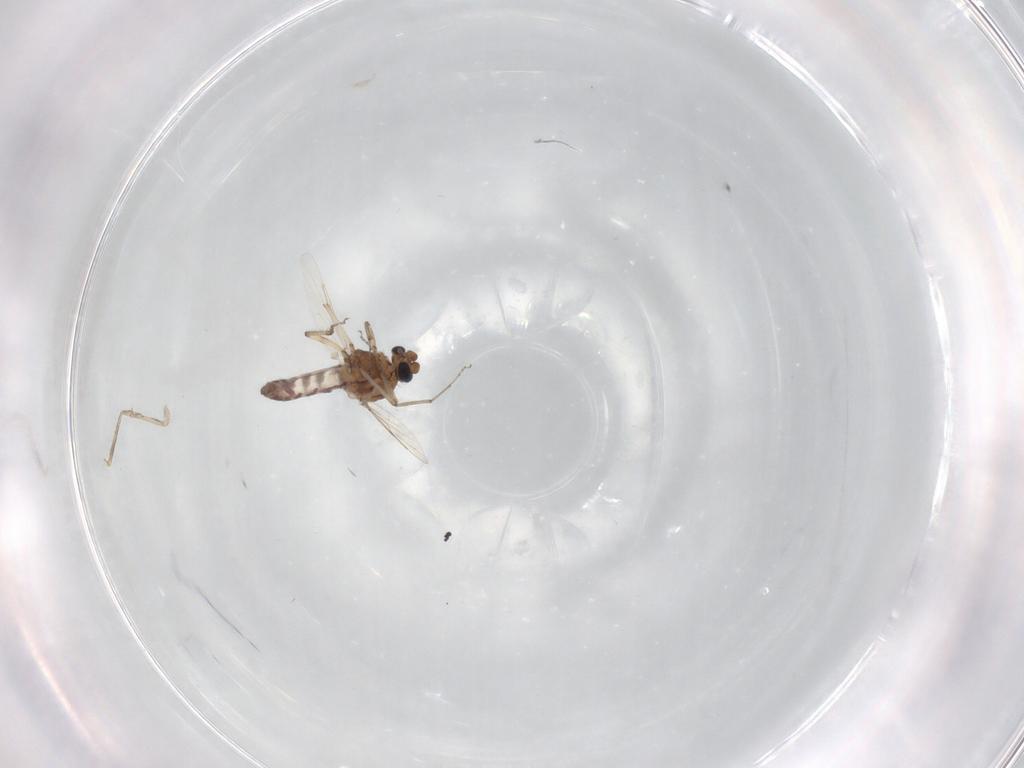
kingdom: Animalia
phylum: Arthropoda
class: Insecta
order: Diptera
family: Ceratopogonidae
